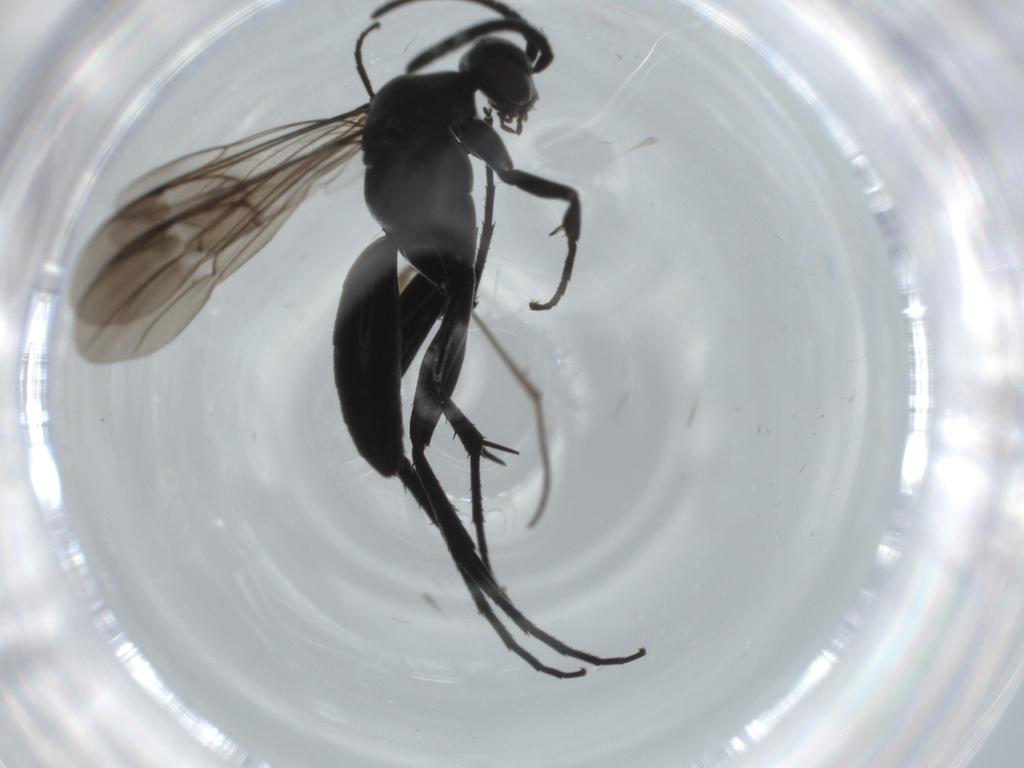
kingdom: Animalia
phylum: Arthropoda
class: Insecta
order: Hymenoptera
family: Pompilidae
